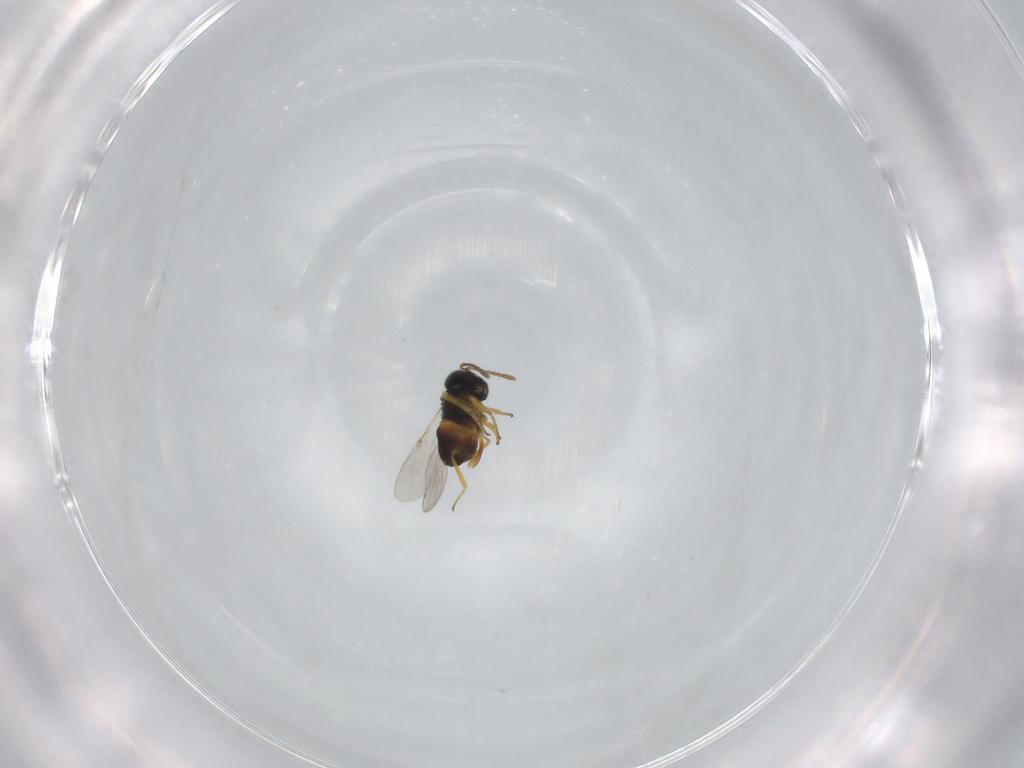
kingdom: Animalia
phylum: Arthropoda
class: Insecta
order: Hymenoptera
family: Encyrtidae
